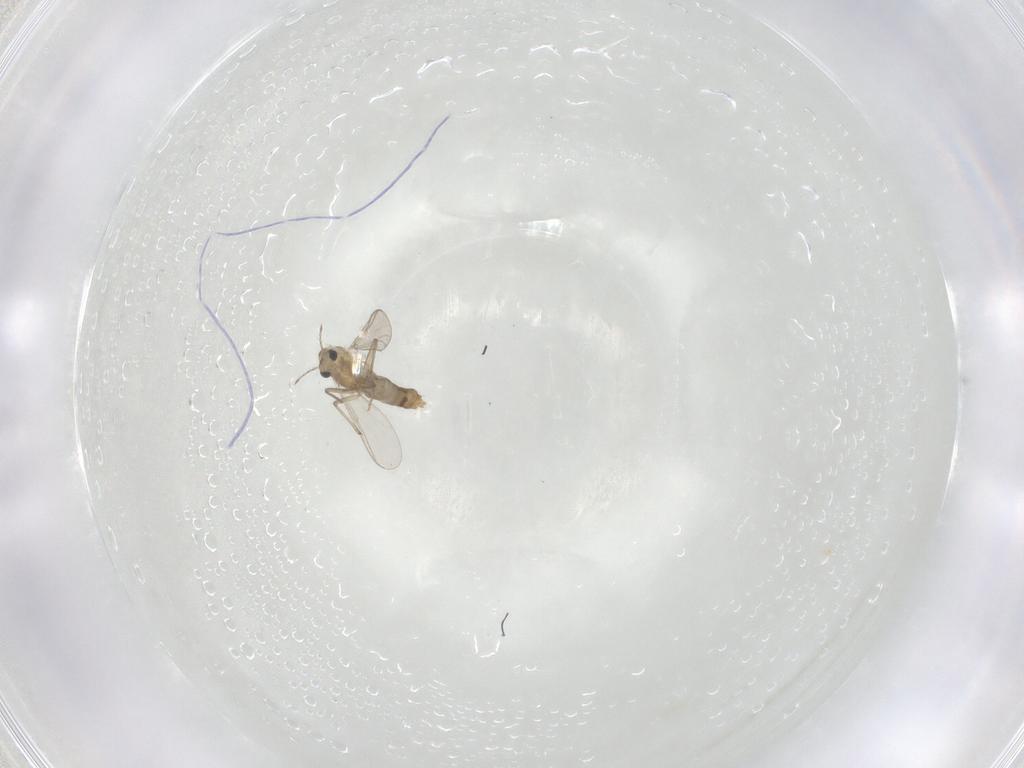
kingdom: Animalia
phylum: Arthropoda
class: Insecta
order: Diptera
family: Chironomidae
